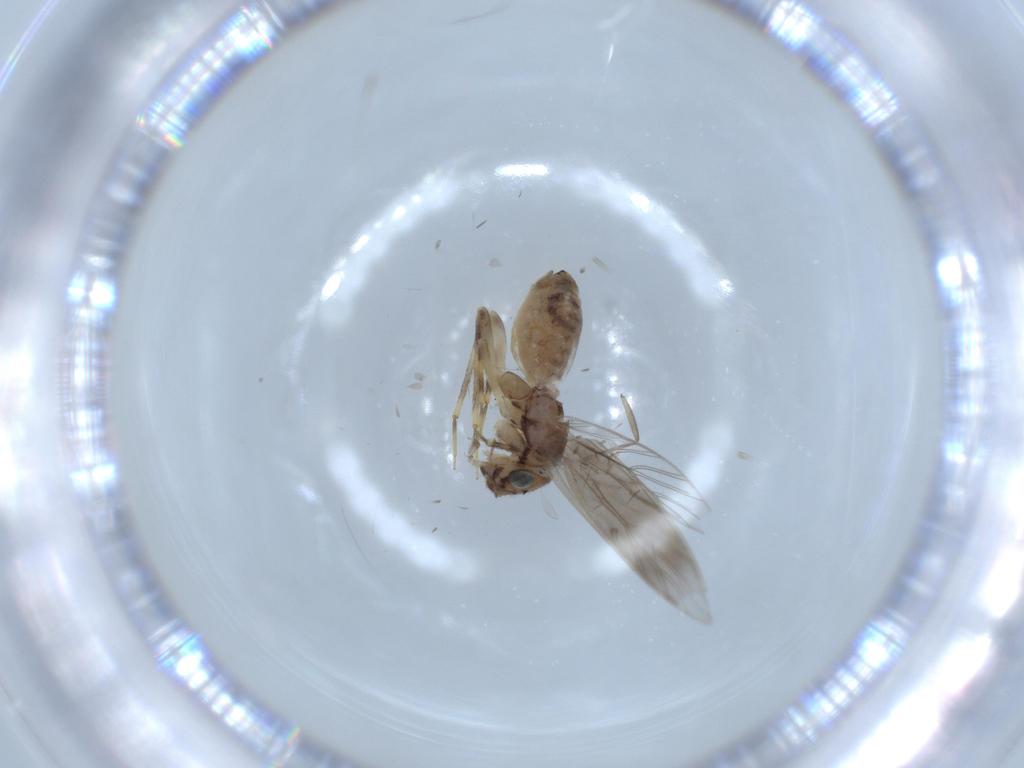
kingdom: Animalia
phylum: Arthropoda
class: Insecta
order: Psocodea
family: Lepidopsocidae
